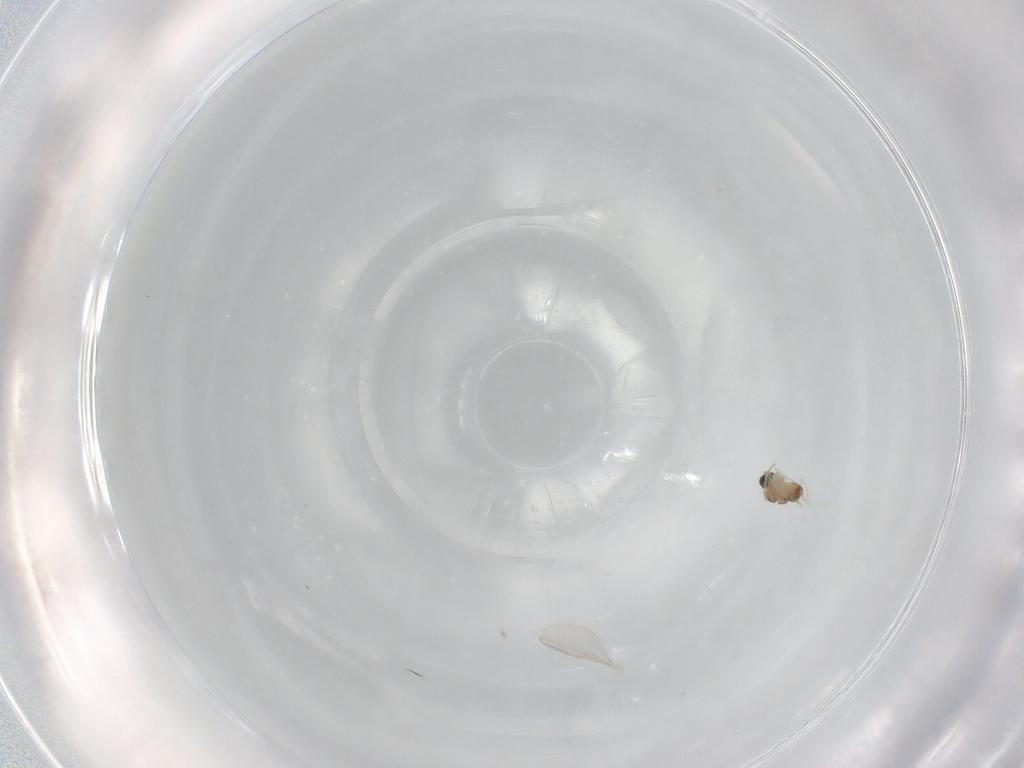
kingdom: Animalia
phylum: Arthropoda
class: Insecta
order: Diptera
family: Cecidomyiidae
